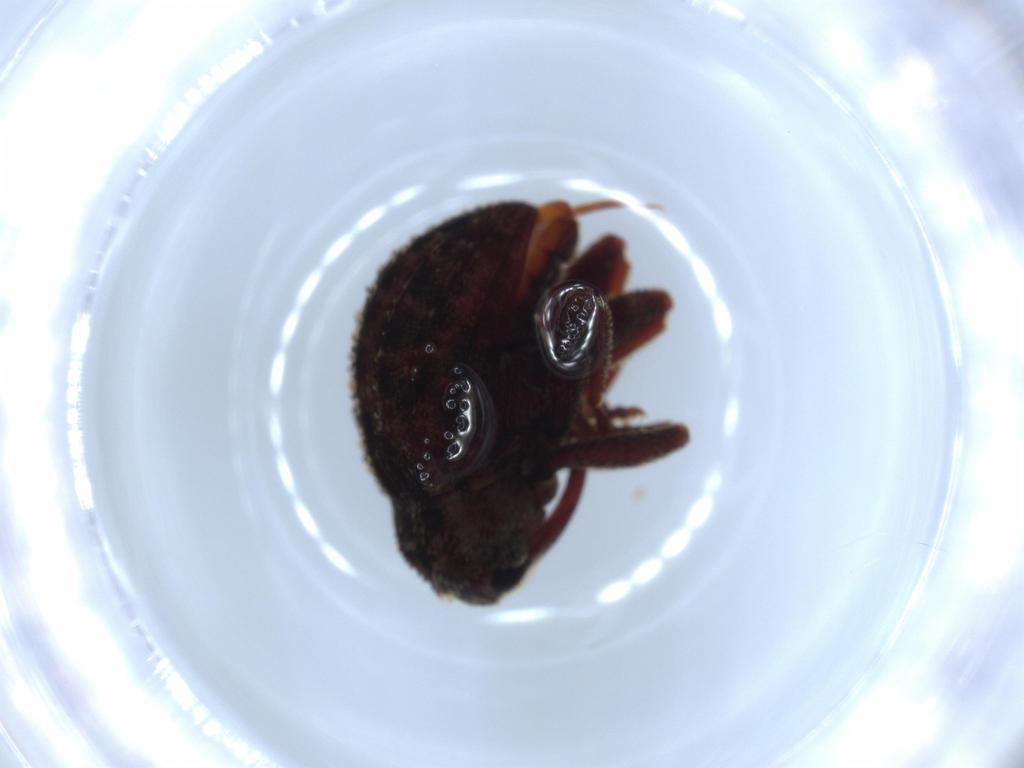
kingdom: Animalia
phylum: Arthropoda
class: Insecta
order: Coleoptera
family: Curculionidae
